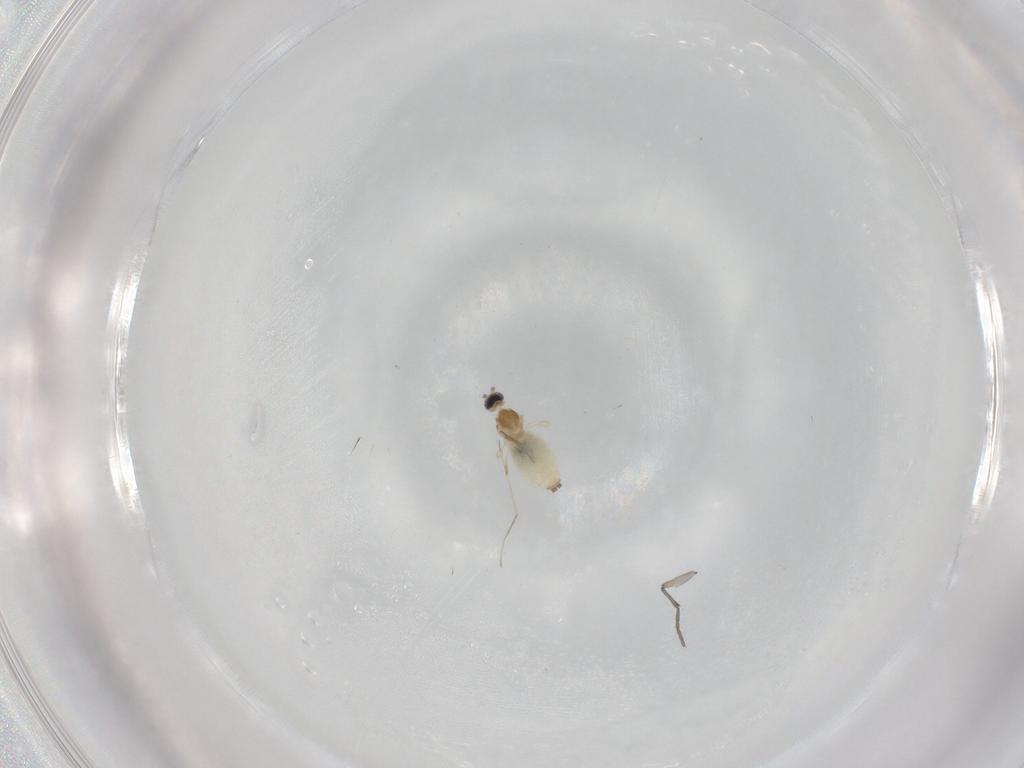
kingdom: Animalia
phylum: Arthropoda
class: Insecta
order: Diptera
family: Sciaridae
